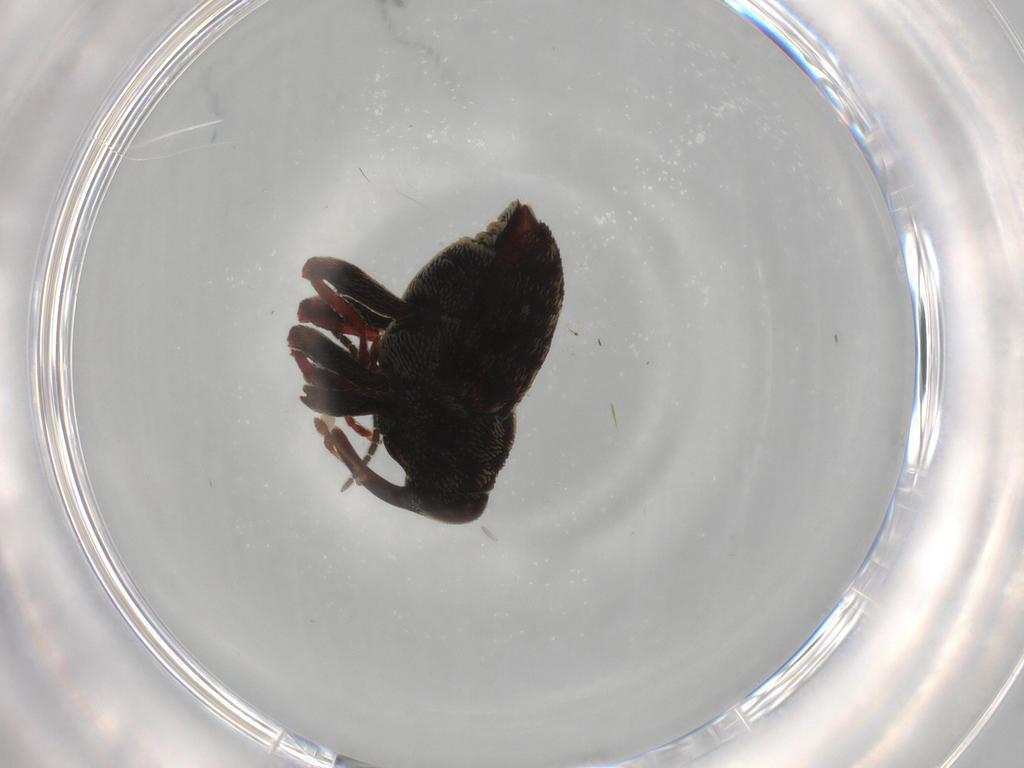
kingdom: Animalia
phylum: Arthropoda
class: Insecta
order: Coleoptera
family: Curculionidae
